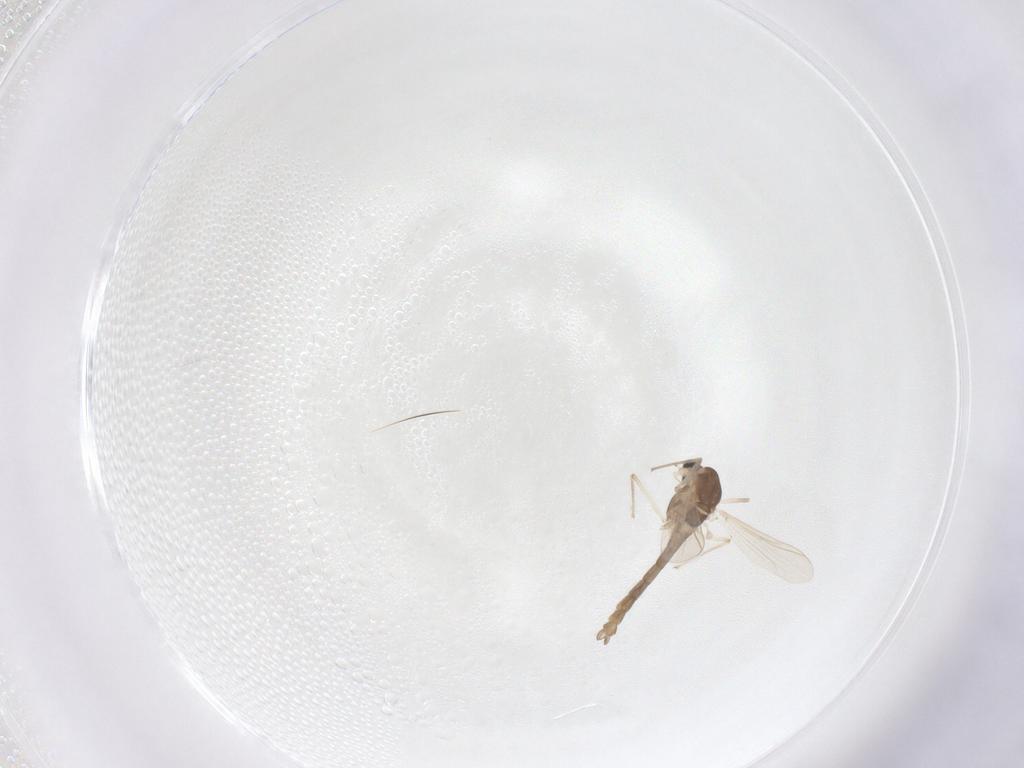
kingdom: Animalia
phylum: Arthropoda
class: Insecta
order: Diptera
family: Chironomidae
